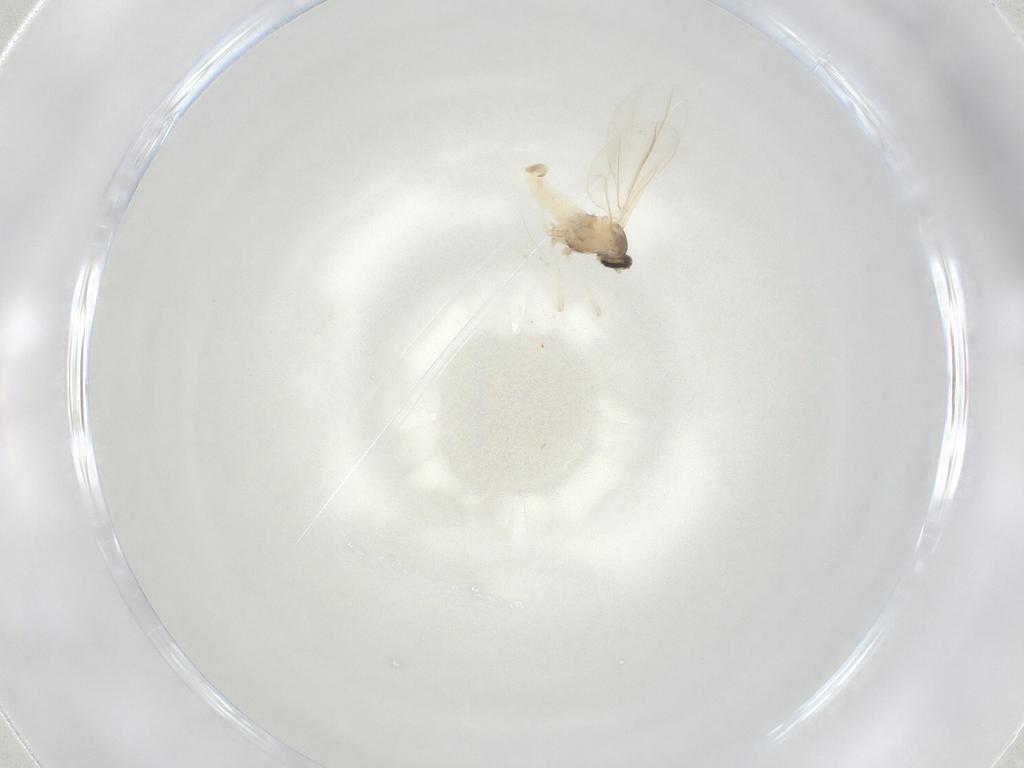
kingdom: Animalia
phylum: Arthropoda
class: Insecta
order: Diptera
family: Cecidomyiidae
